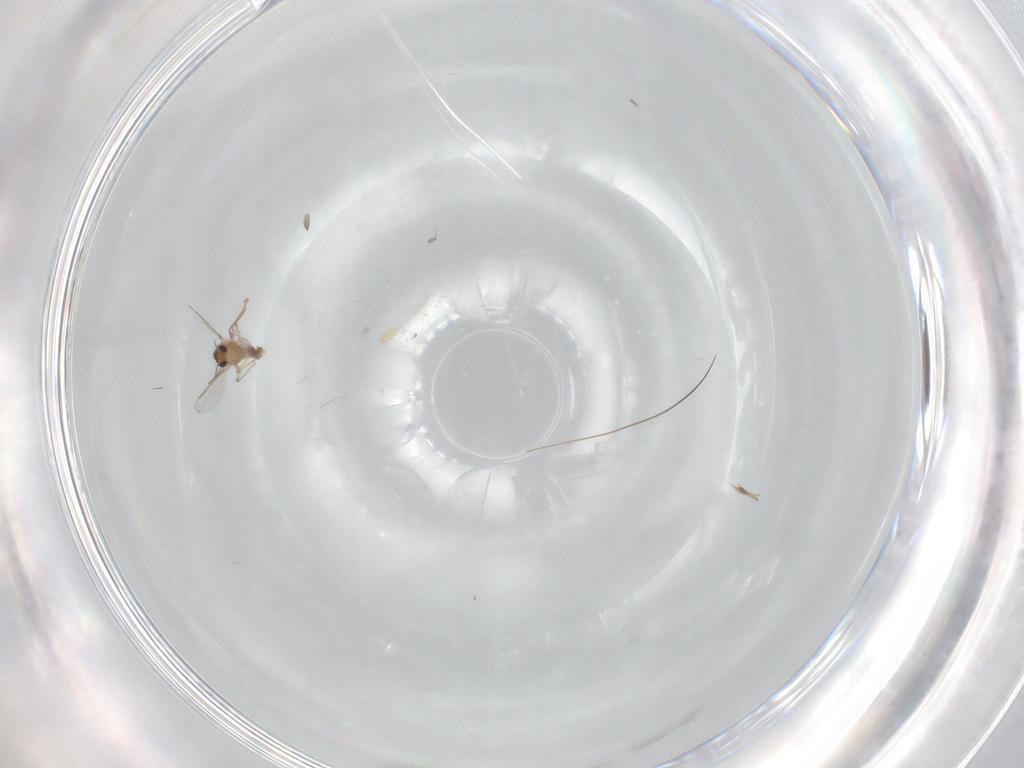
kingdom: Animalia
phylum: Arthropoda
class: Insecta
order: Diptera
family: Chironomidae
